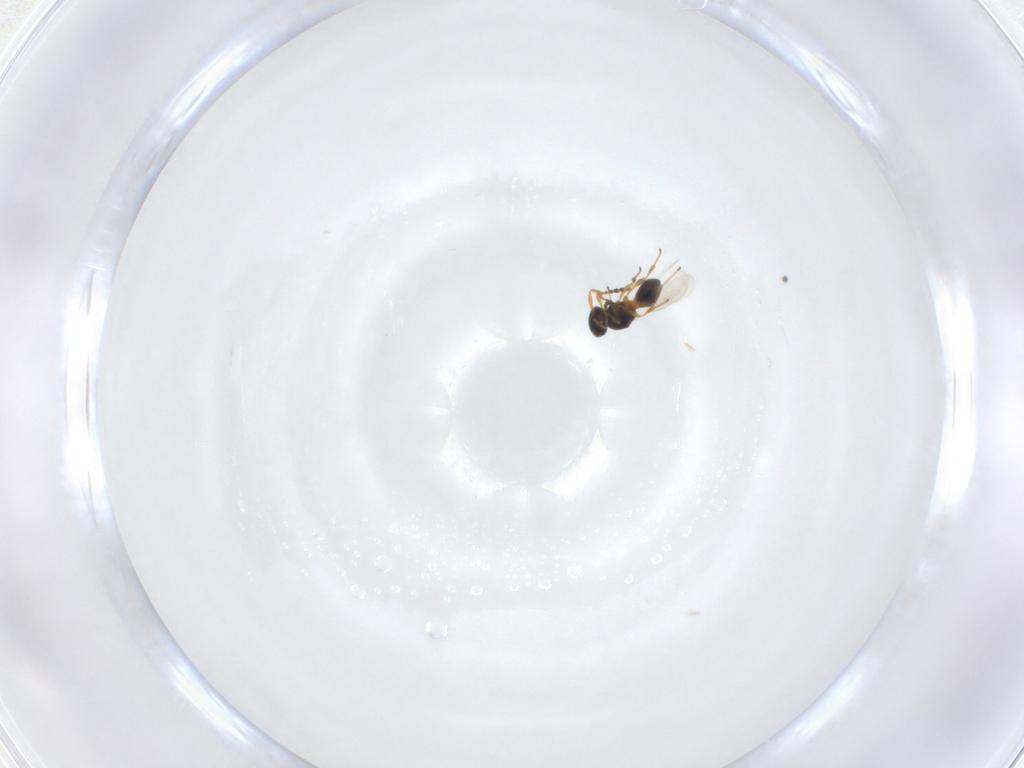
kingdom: Animalia
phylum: Arthropoda
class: Insecta
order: Hymenoptera
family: Platygastridae
